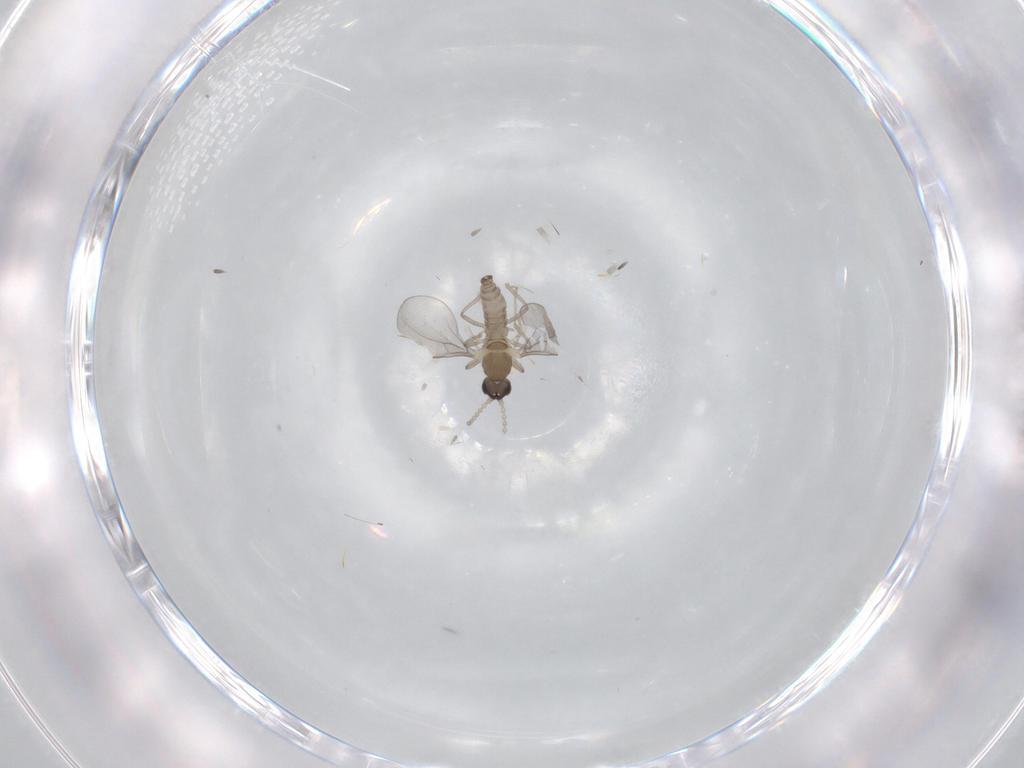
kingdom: Animalia
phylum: Arthropoda
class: Insecta
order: Diptera
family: Cecidomyiidae
